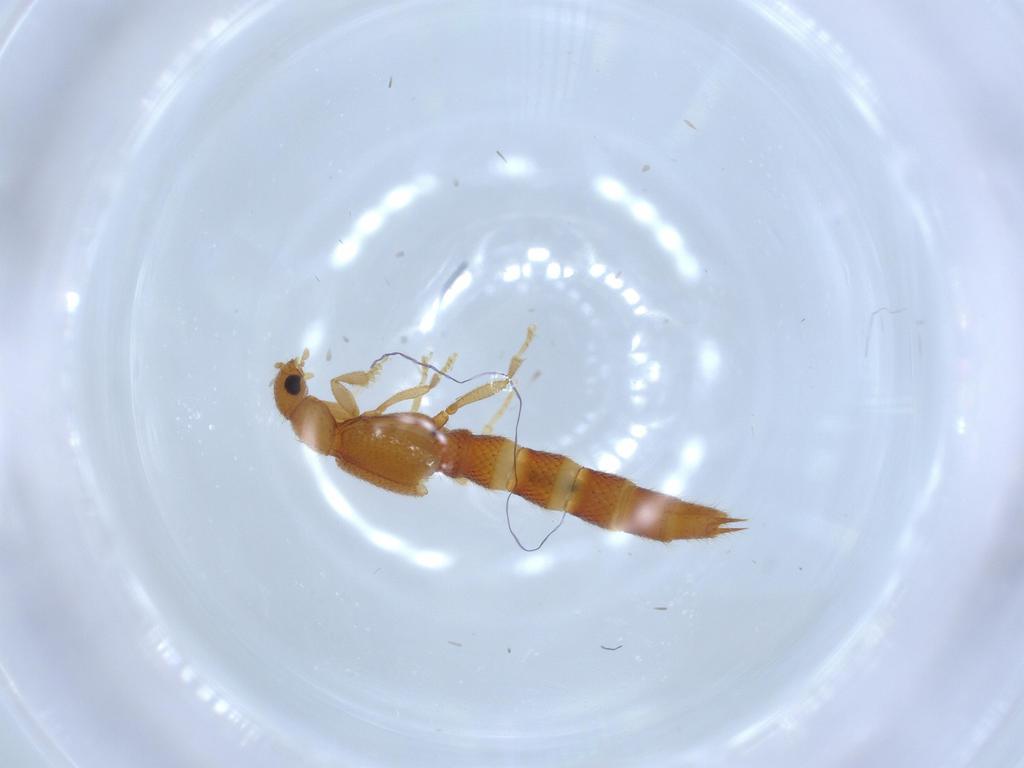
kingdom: Animalia
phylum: Arthropoda
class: Insecta
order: Coleoptera
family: Staphylinidae
